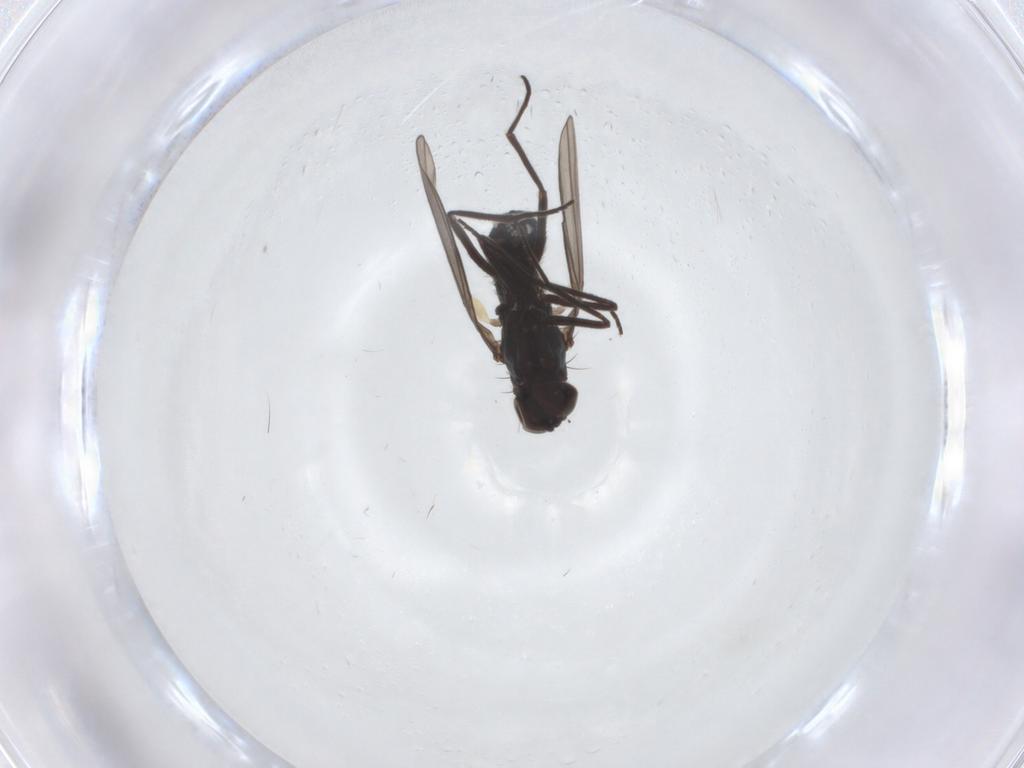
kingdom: Animalia
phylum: Arthropoda
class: Insecta
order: Diptera
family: Dolichopodidae
